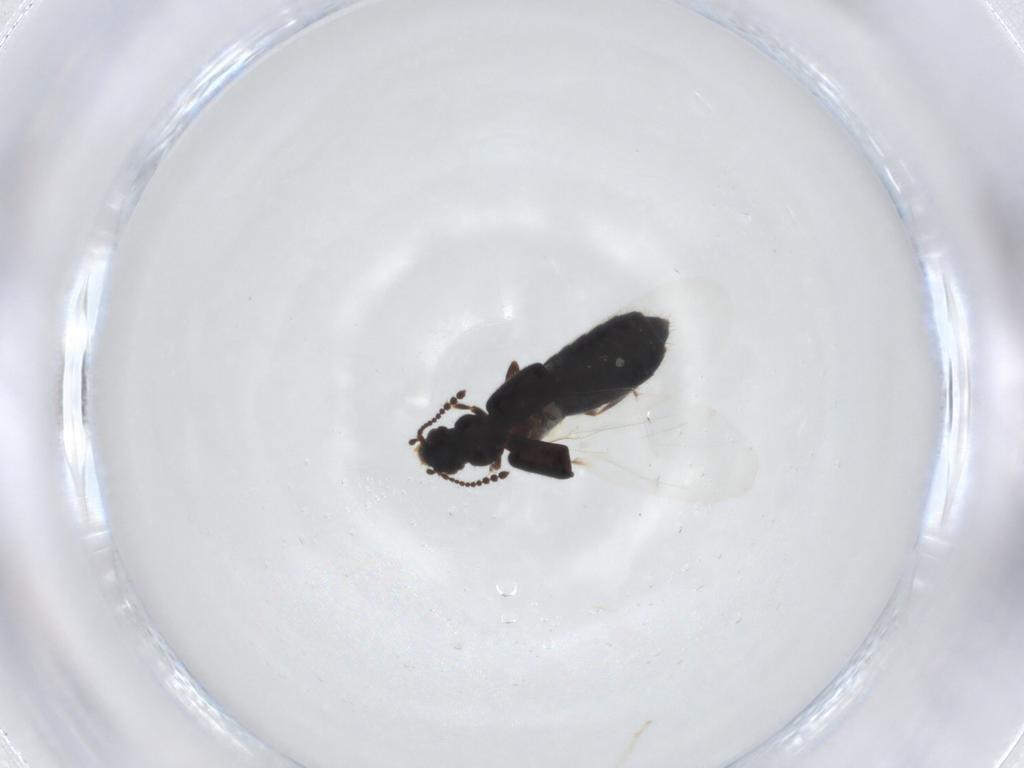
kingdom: Animalia
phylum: Arthropoda
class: Insecta
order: Coleoptera
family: Staphylinidae
